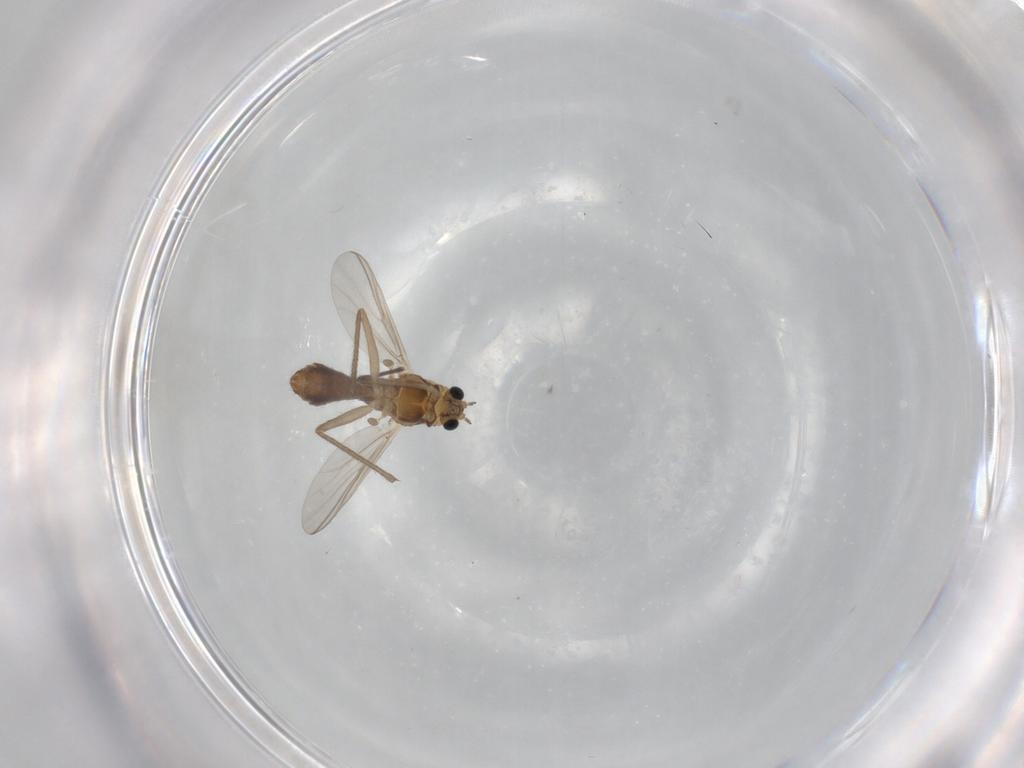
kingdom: Animalia
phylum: Arthropoda
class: Insecta
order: Diptera
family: Chironomidae
